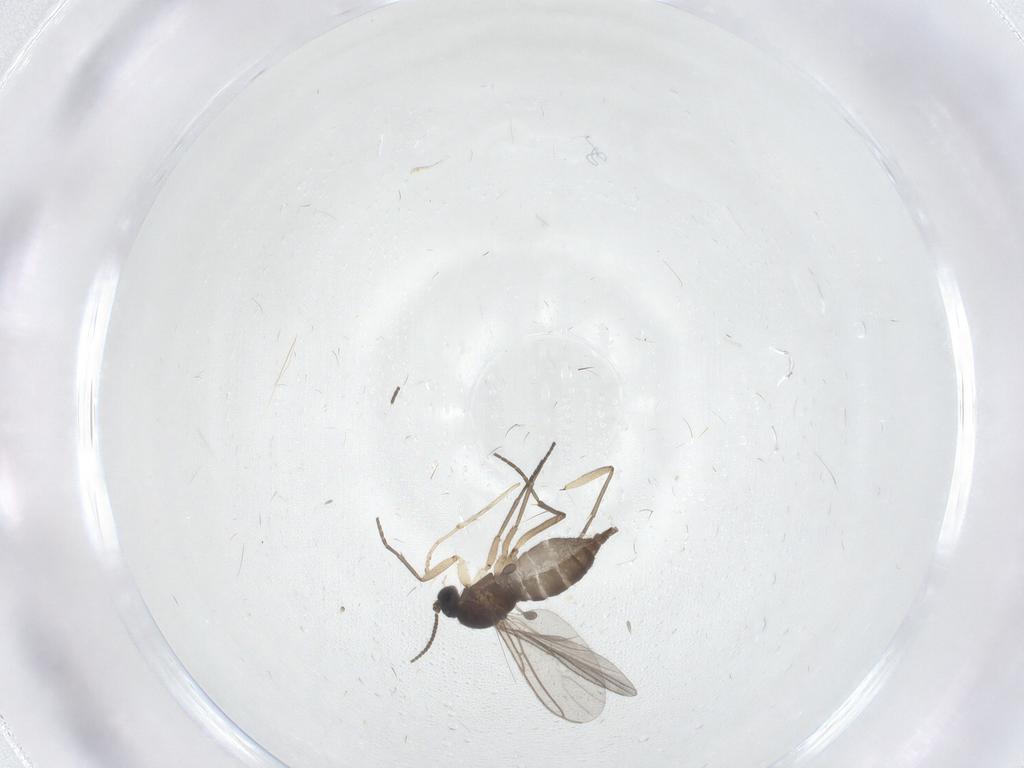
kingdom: Animalia
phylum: Arthropoda
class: Insecta
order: Diptera
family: Sciaridae
